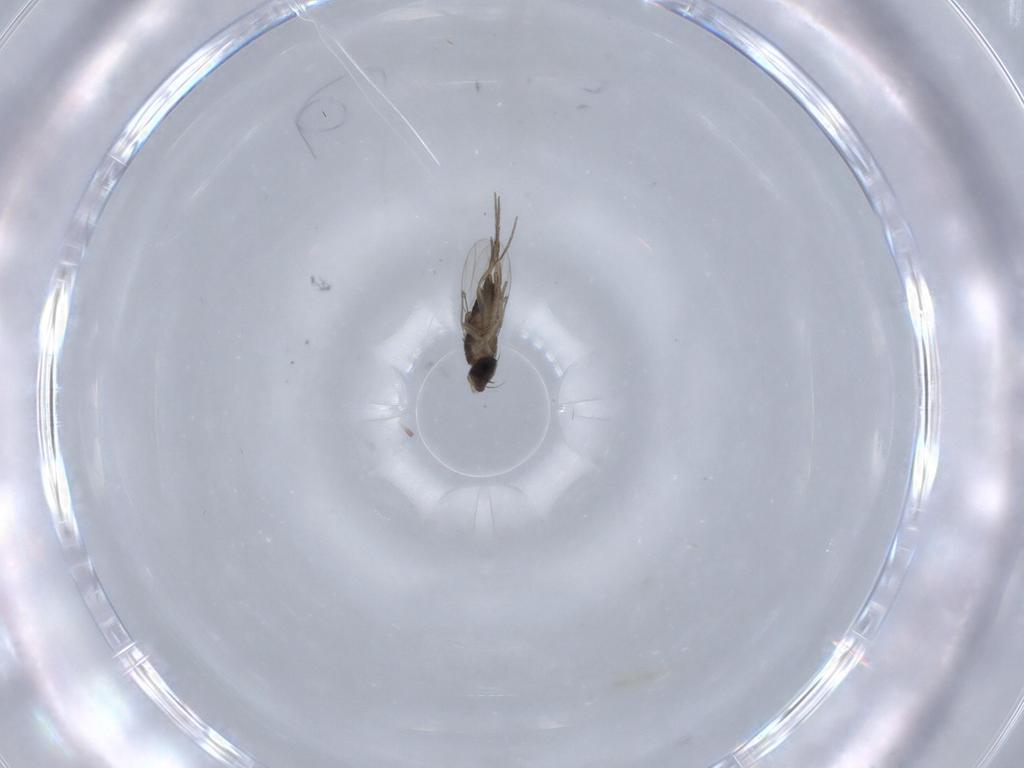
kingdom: Animalia
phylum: Arthropoda
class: Insecta
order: Diptera
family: Phoridae
